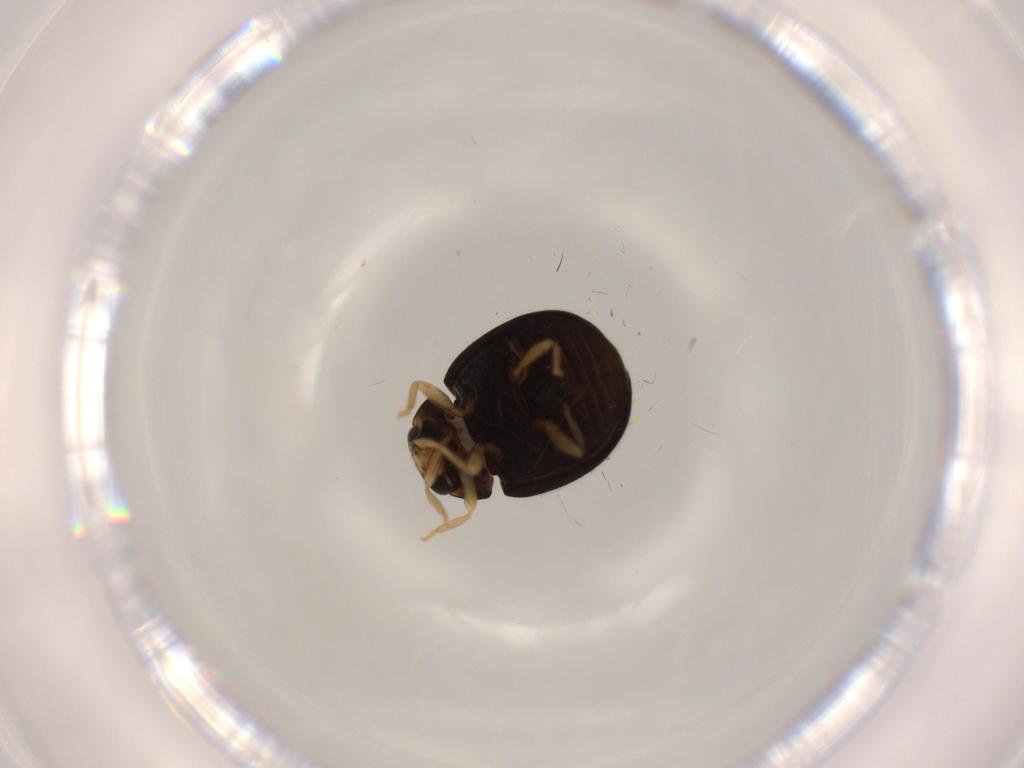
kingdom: Animalia
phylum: Arthropoda
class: Insecta
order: Coleoptera
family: Coccinellidae
